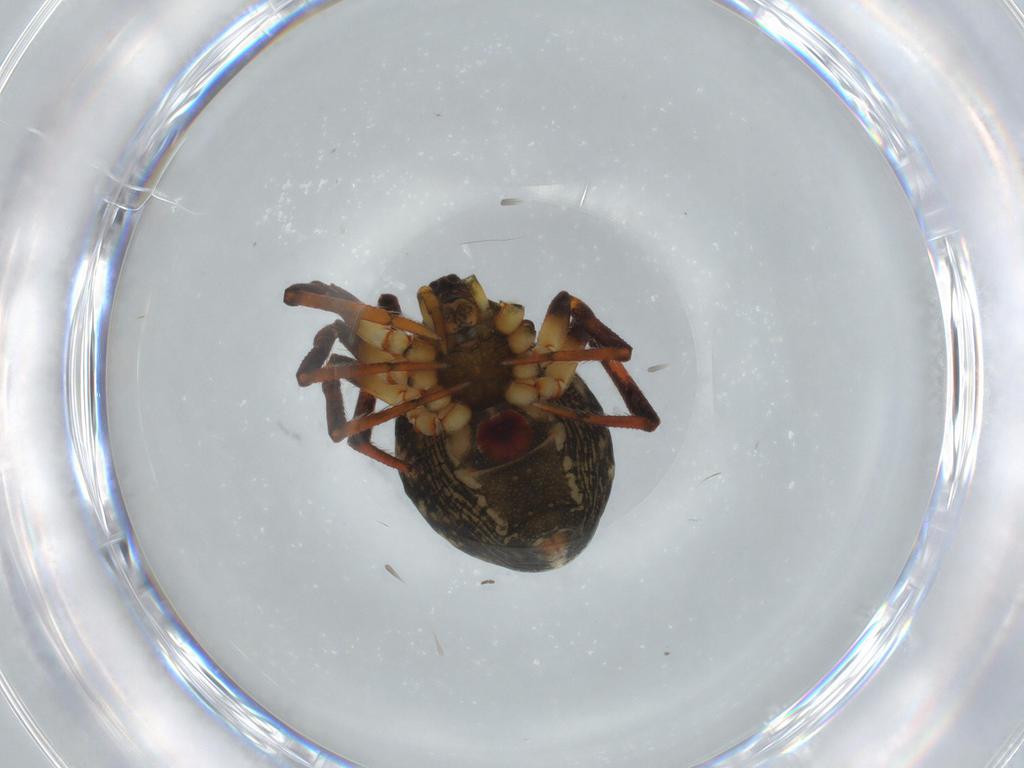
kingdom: Animalia
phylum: Arthropoda
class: Arachnida
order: Araneae
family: Theridiidae
